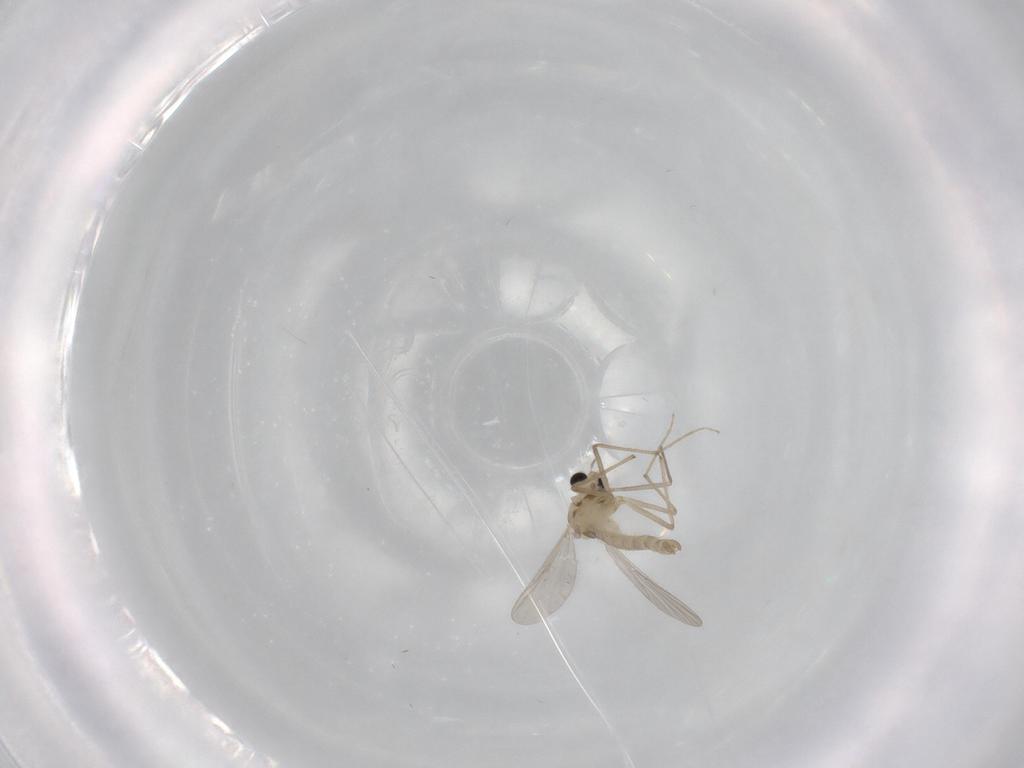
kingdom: Animalia
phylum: Arthropoda
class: Insecta
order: Diptera
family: Chironomidae
